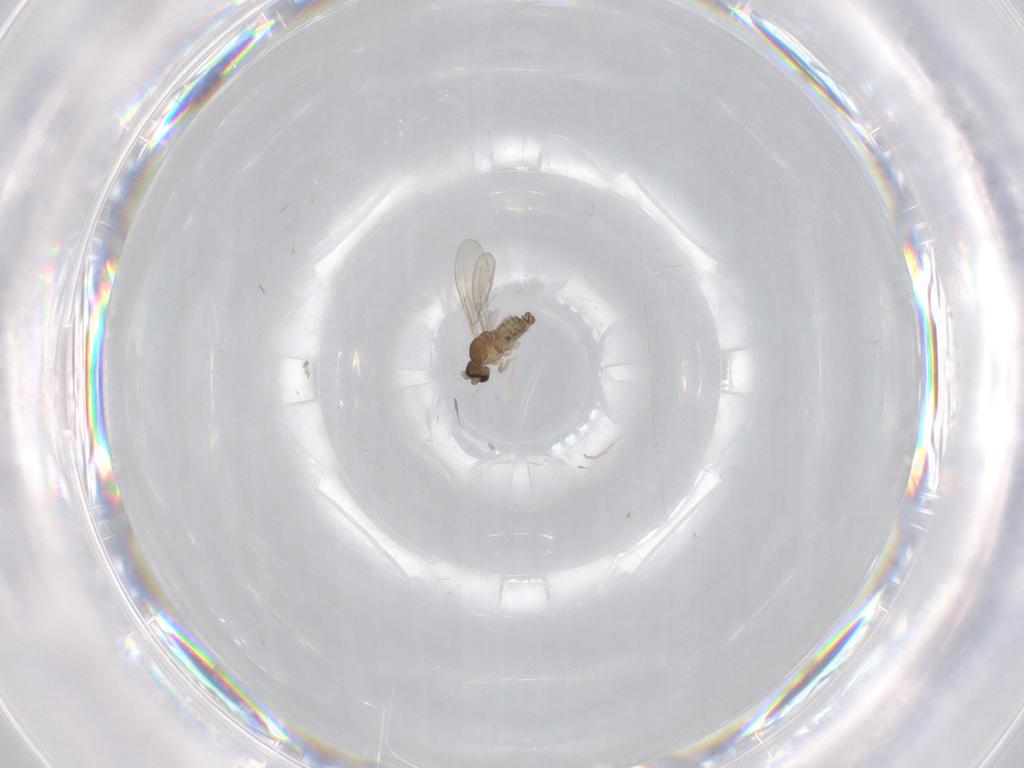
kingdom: Animalia
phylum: Arthropoda
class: Insecta
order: Diptera
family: Cecidomyiidae
